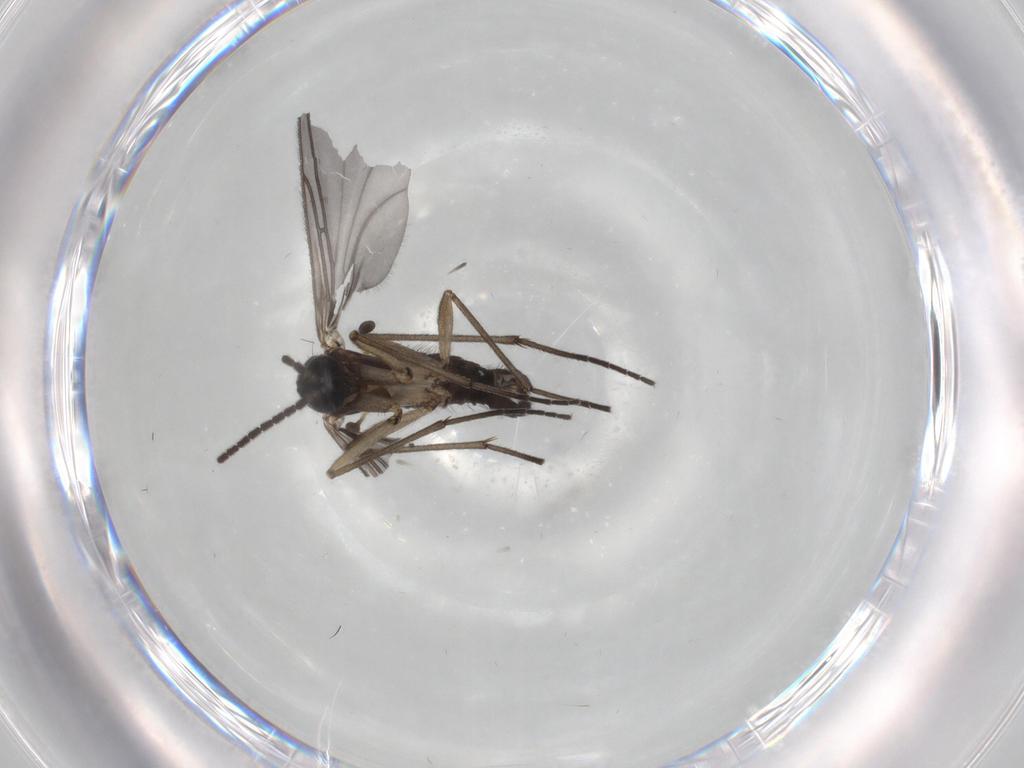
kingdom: Animalia
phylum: Arthropoda
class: Insecta
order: Diptera
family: Sciaridae
